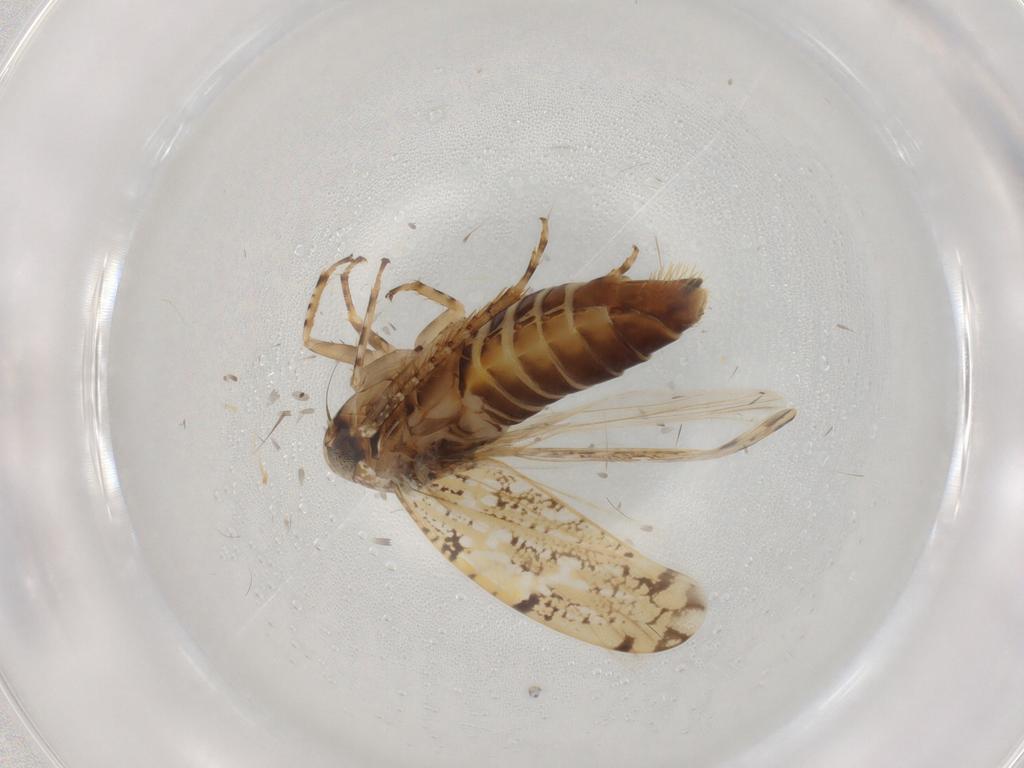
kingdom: Animalia
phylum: Arthropoda
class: Insecta
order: Hemiptera
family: Cicadellidae
